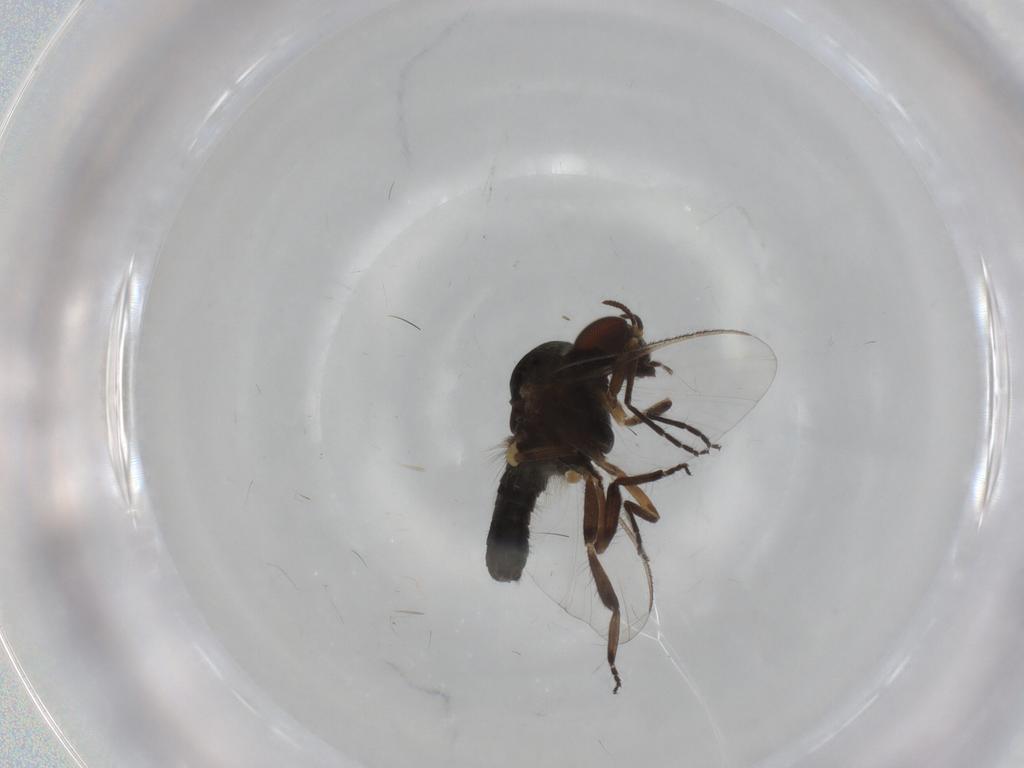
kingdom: Animalia
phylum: Arthropoda
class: Insecta
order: Diptera
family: Ceratopogonidae
